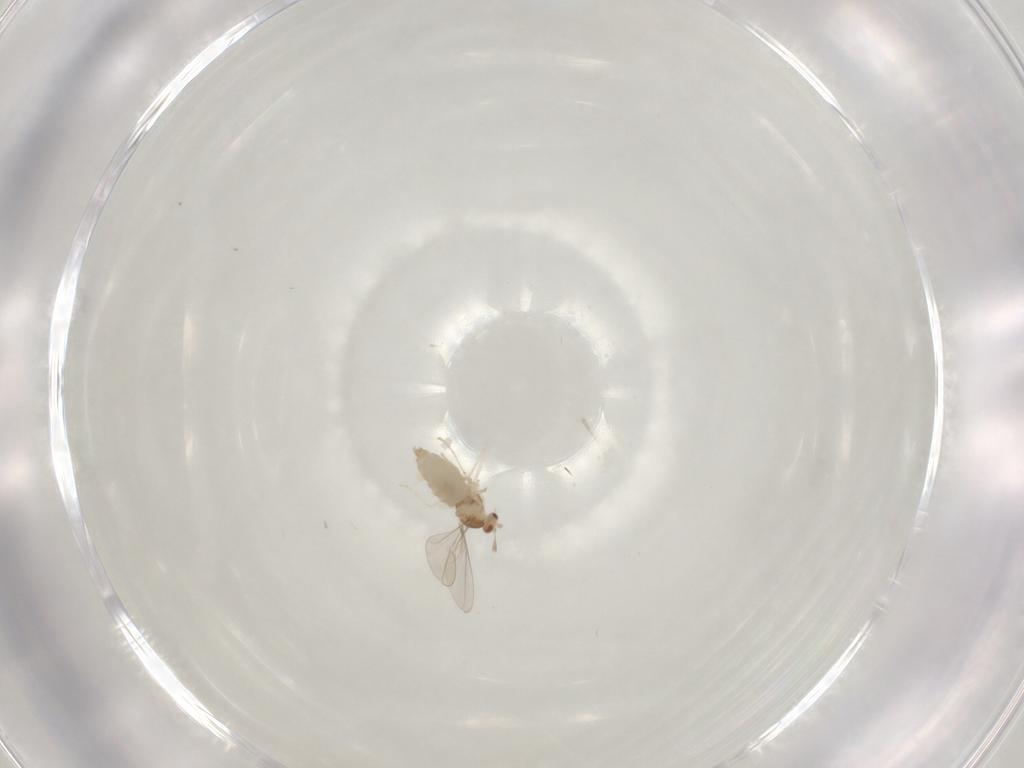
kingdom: Animalia
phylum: Arthropoda
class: Insecta
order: Diptera
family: Cecidomyiidae
